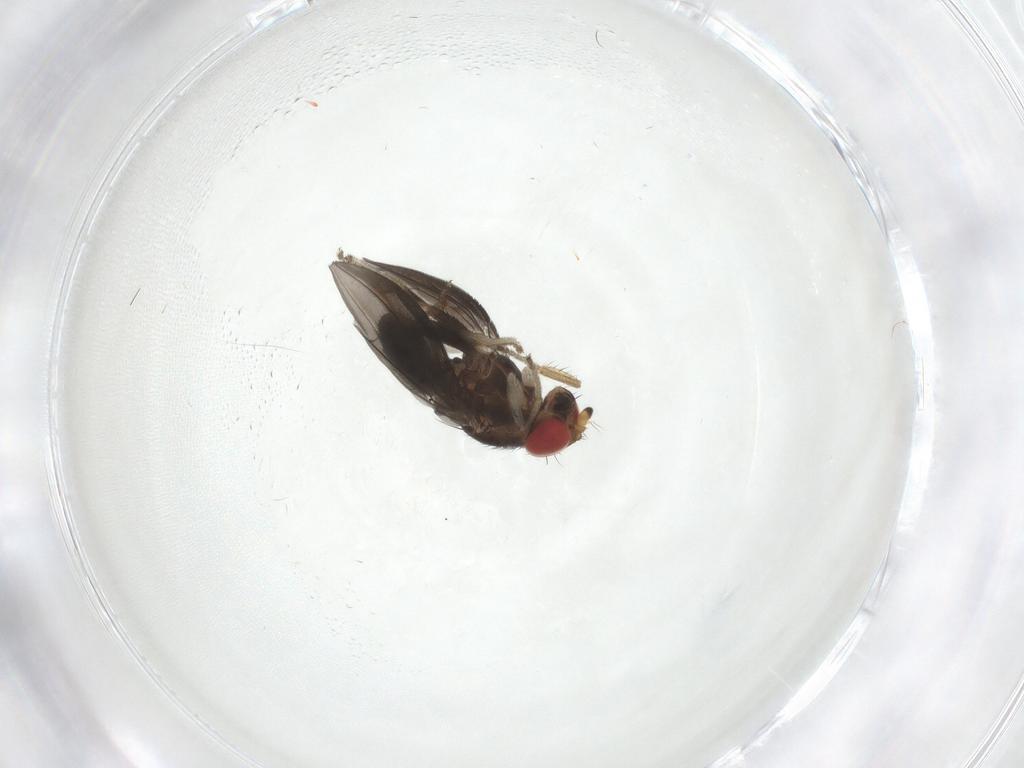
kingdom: Animalia
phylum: Arthropoda
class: Insecta
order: Diptera
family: Drosophilidae
